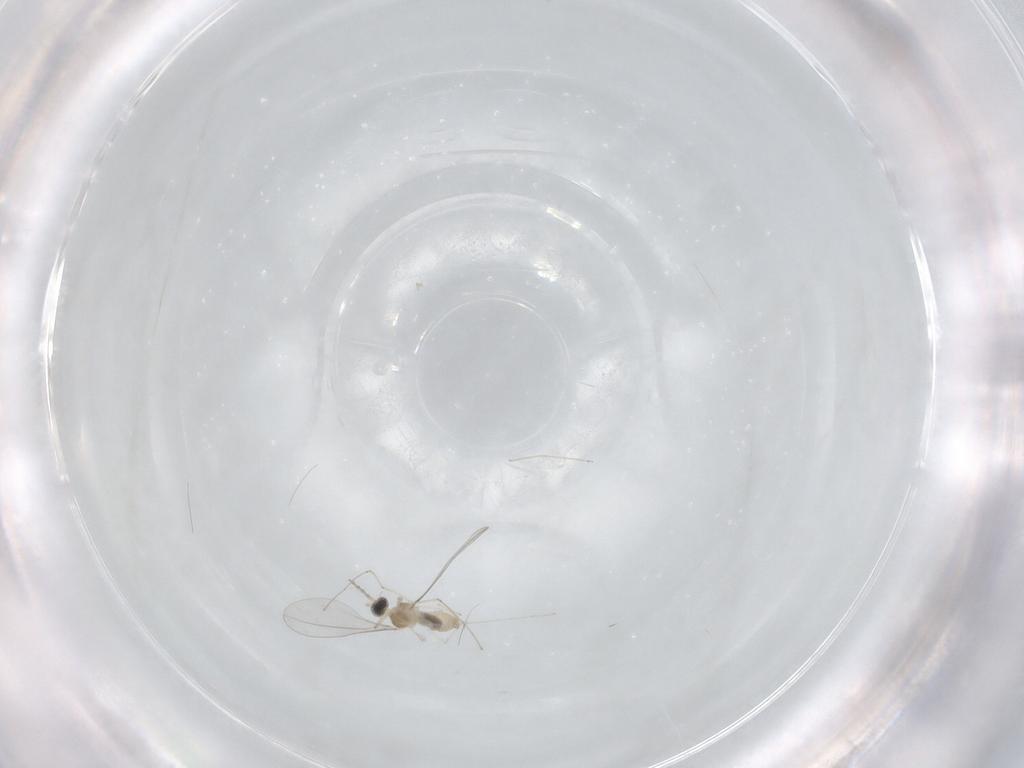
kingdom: Animalia
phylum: Arthropoda
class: Insecta
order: Diptera
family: Cecidomyiidae
